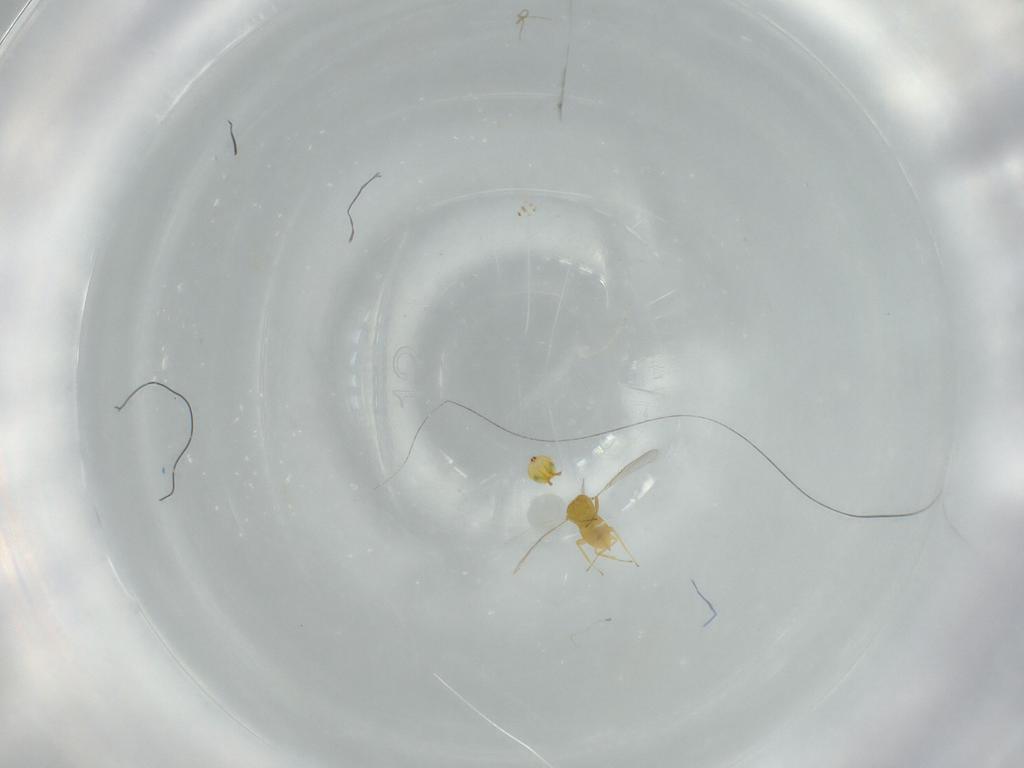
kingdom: Animalia
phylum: Arthropoda
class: Insecta
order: Hymenoptera
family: Aphelinidae
